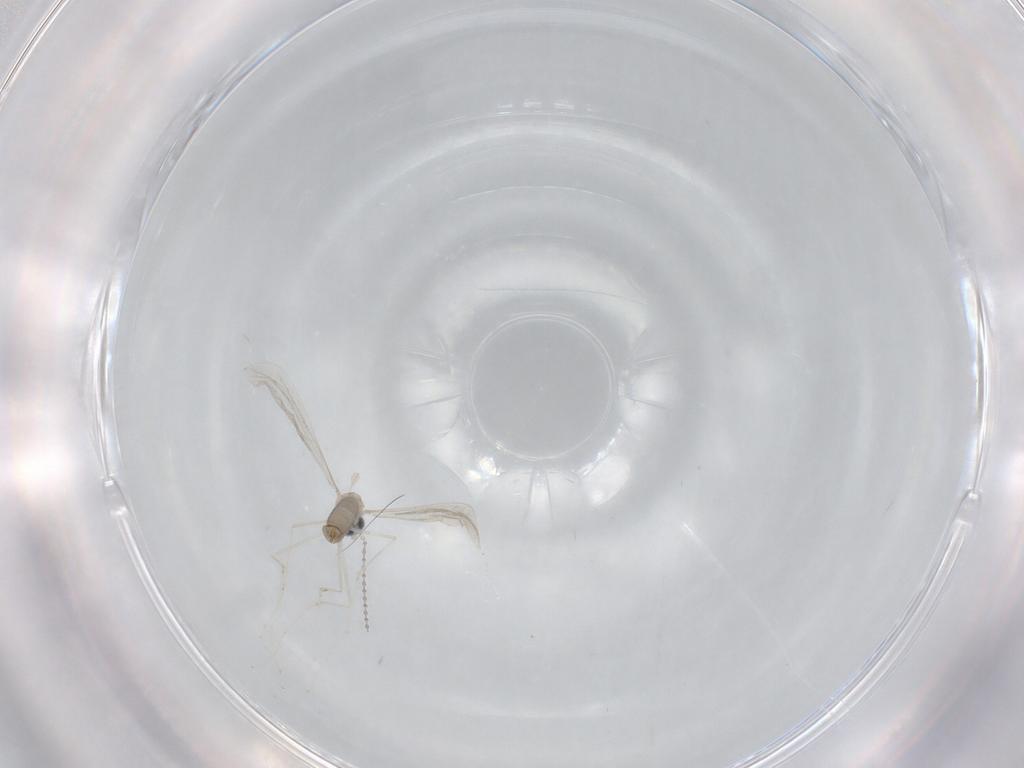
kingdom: Animalia
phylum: Arthropoda
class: Insecta
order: Diptera
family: Cecidomyiidae
